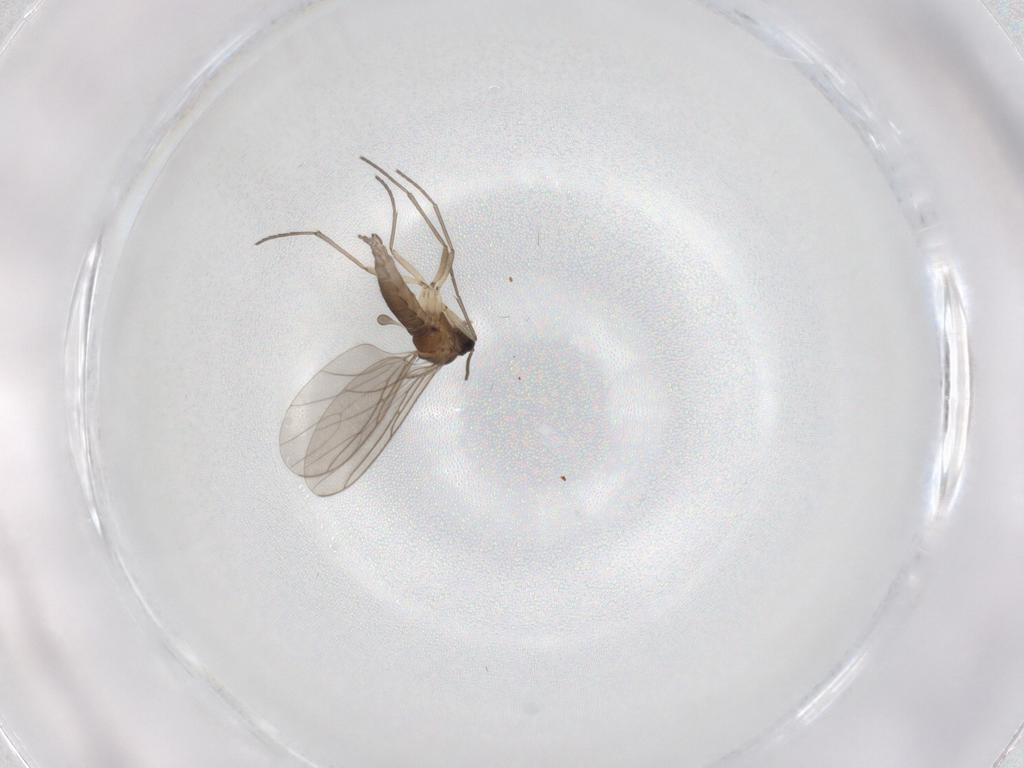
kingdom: Animalia
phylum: Arthropoda
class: Insecta
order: Diptera
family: Sciaridae
